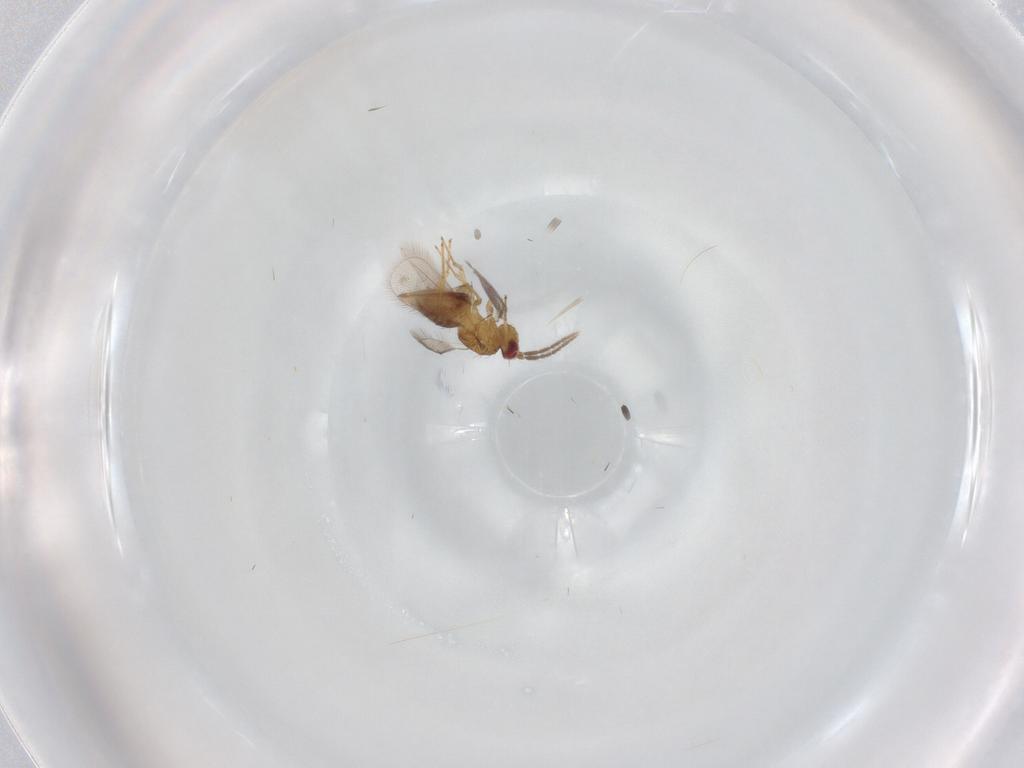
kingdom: Animalia
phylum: Arthropoda
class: Insecta
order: Hymenoptera
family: Eulophidae
